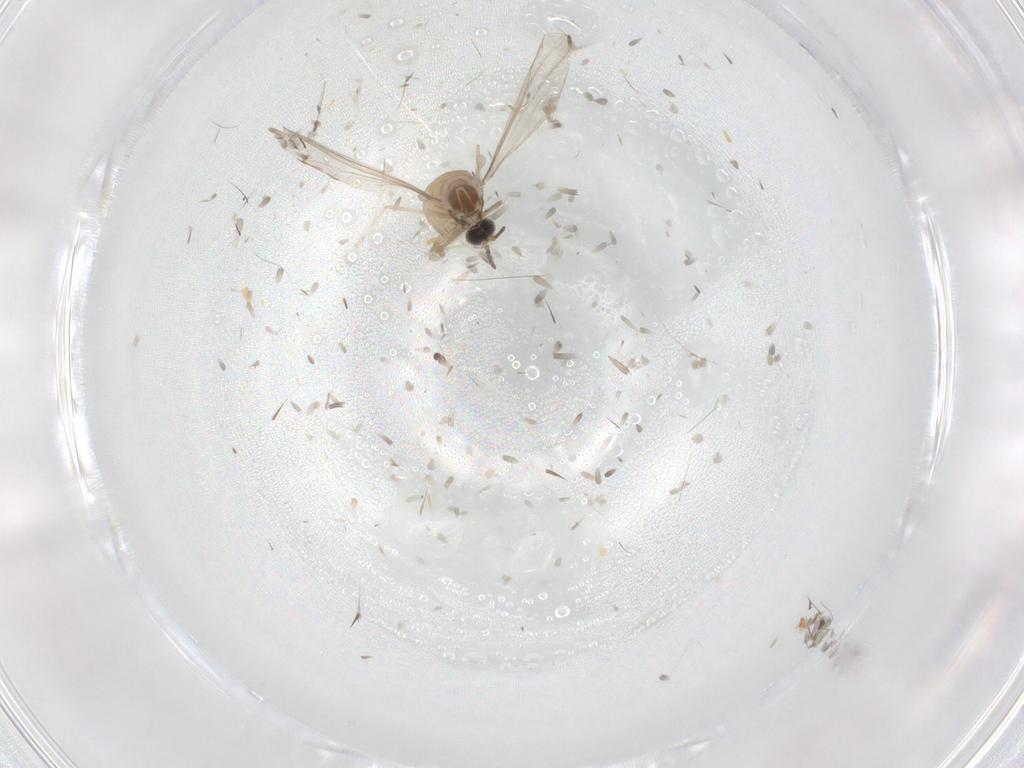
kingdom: Animalia
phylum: Arthropoda
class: Insecta
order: Diptera
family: Cecidomyiidae
